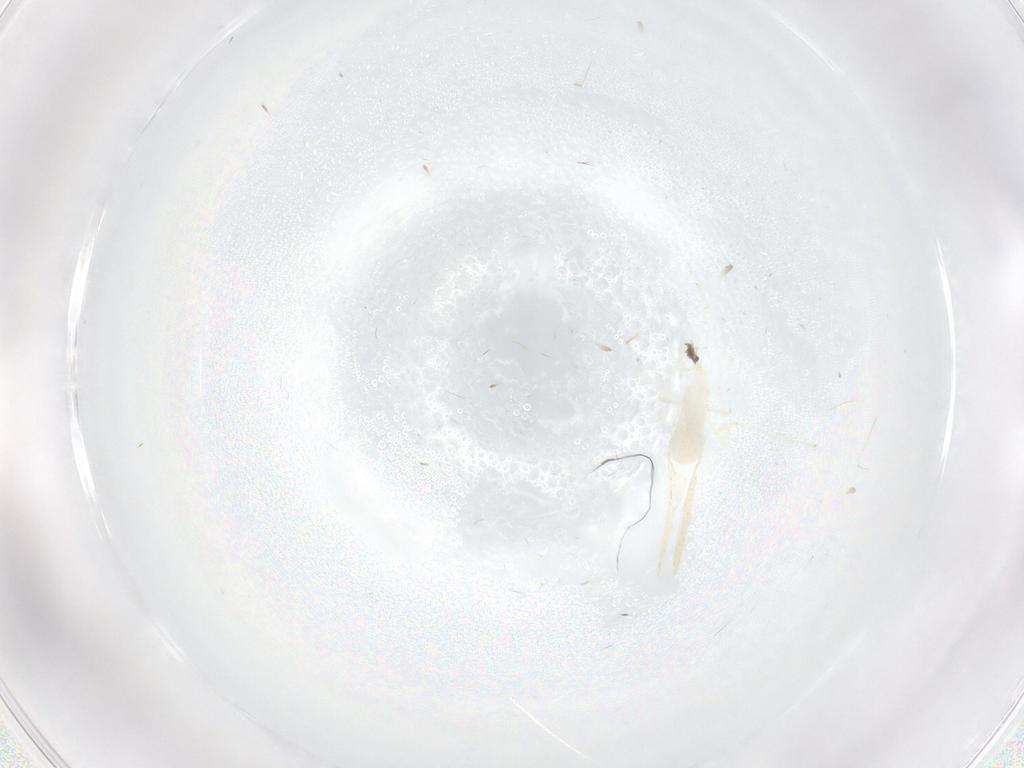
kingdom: Animalia
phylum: Arthropoda
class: Insecta
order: Diptera
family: Cecidomyiidae
